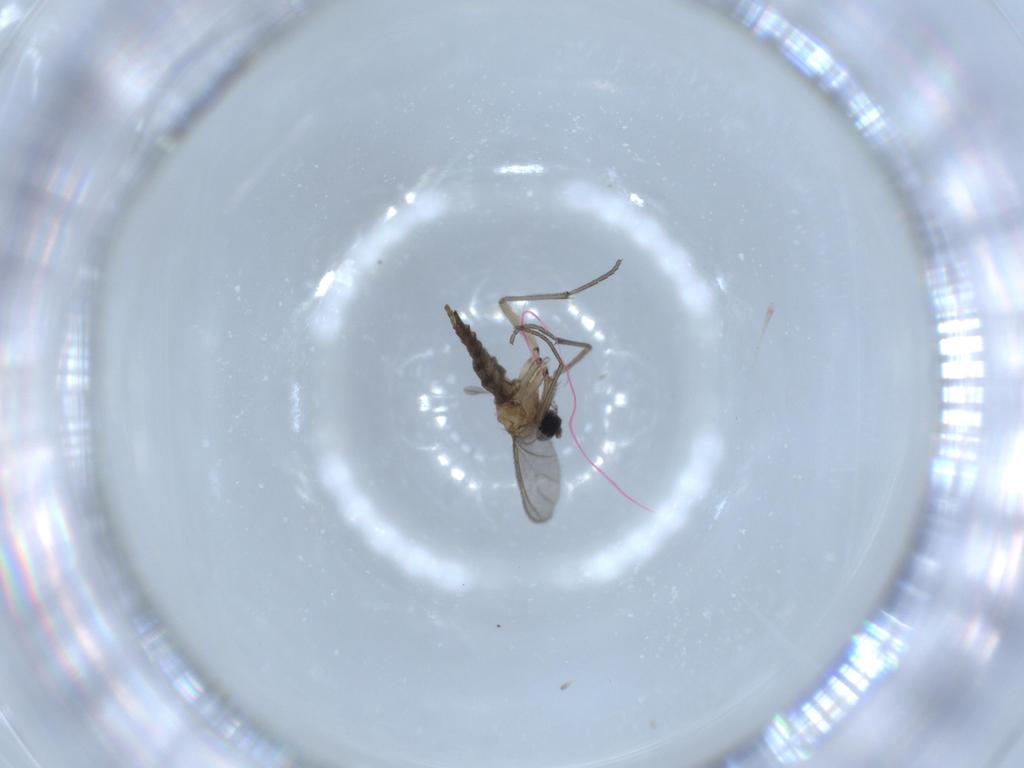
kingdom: Animalia
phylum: Arthropoda
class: Insecta
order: Diptera
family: Sciaridae
